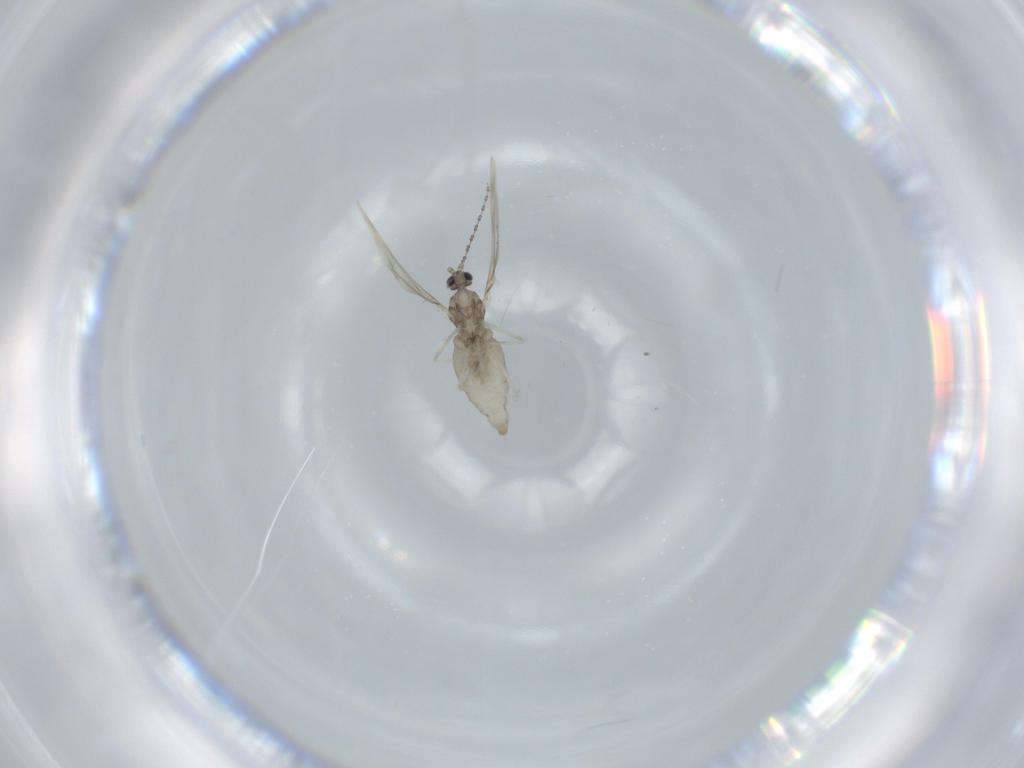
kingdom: Animalia
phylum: Arthropoda
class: Insecta
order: Diptera
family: Cecidomyiidae
